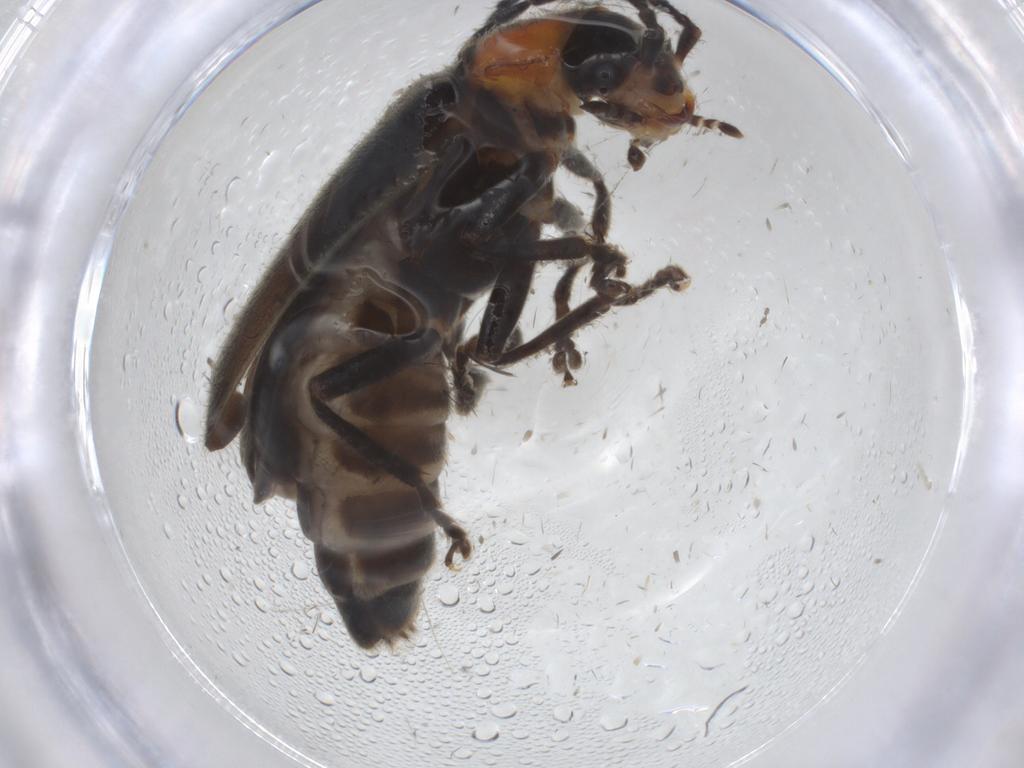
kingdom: Animalia
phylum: Arthropoda
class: Insecta
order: Coleoptera
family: Cantharidae
